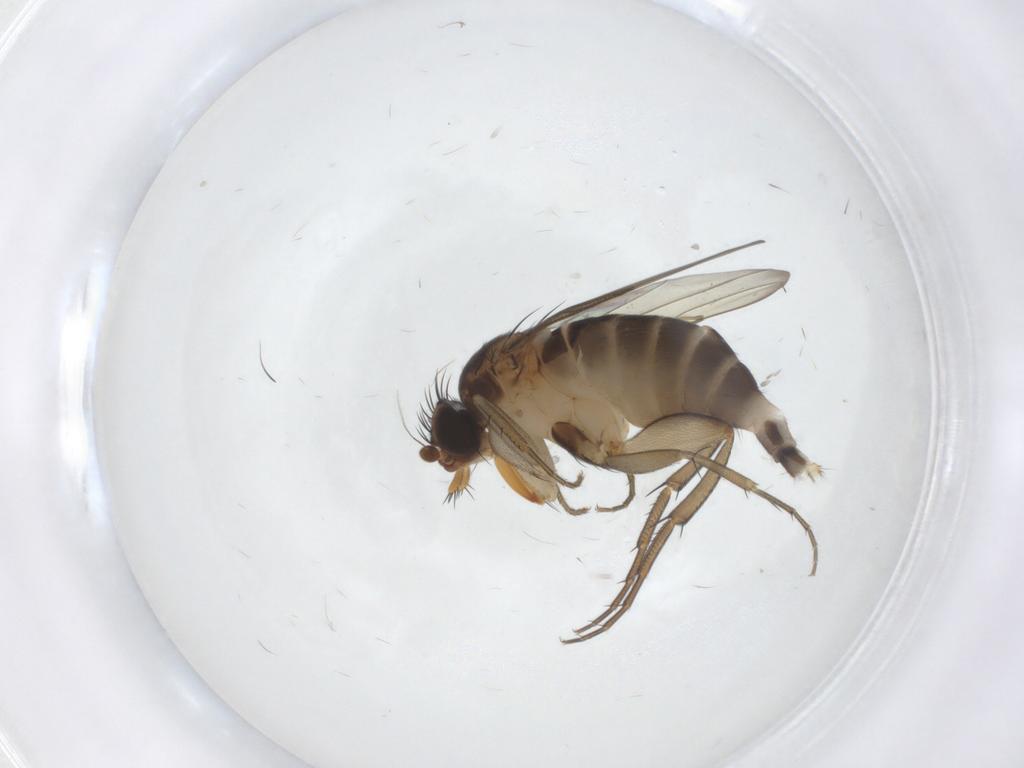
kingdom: Animalia
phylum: Arthropoda
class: Insecta
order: Diptera
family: Phoridae
